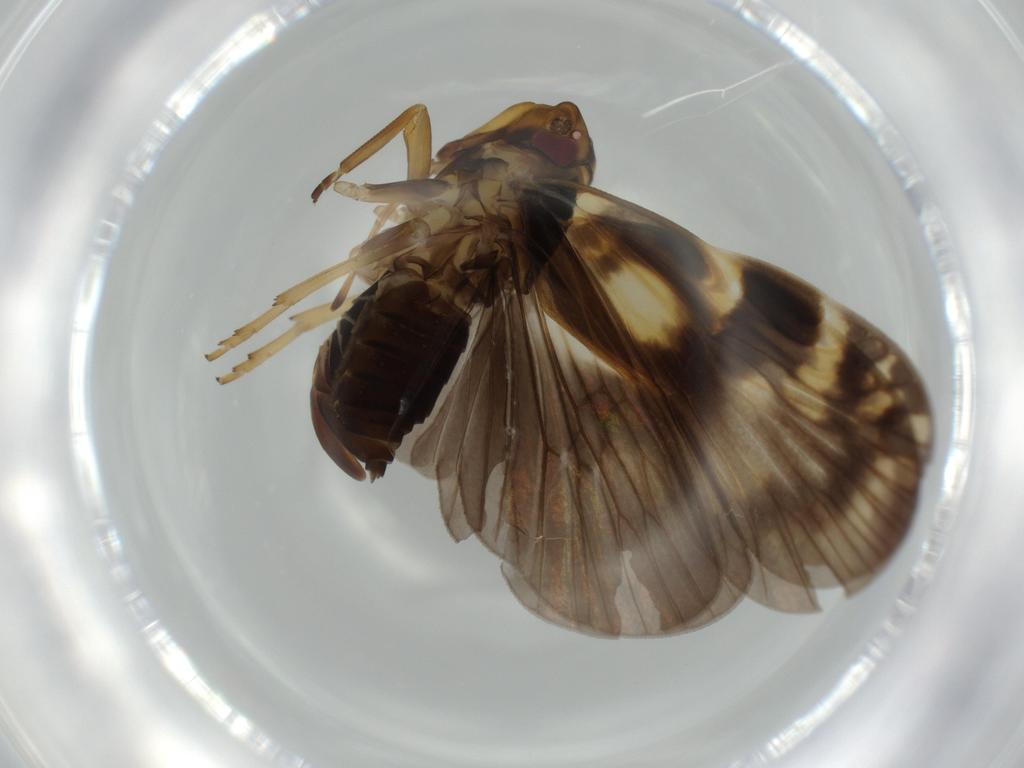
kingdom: Animalia
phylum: Arthropoda
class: Insecta
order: Hemiptera
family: Cixiidae
